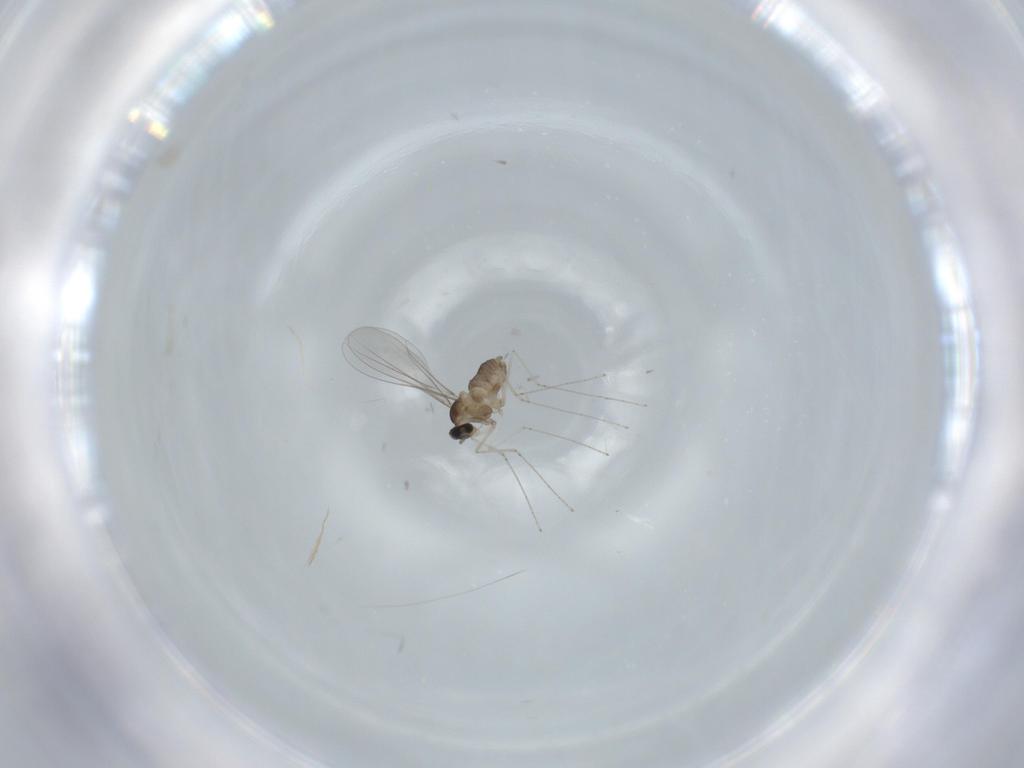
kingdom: Animalia
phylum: Arthropoda
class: Insecta
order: Diptera
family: Cecidomyiidae
